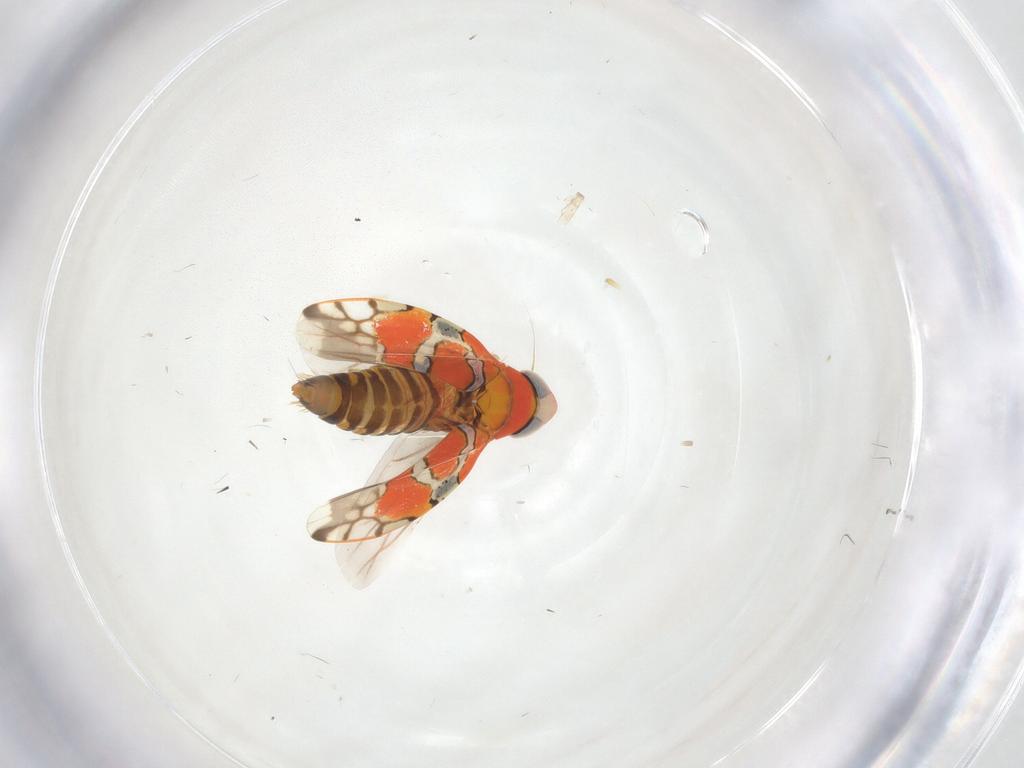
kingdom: Animalia
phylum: Arthropoda
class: Insecta
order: Hemiptera
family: Cicadellidae
